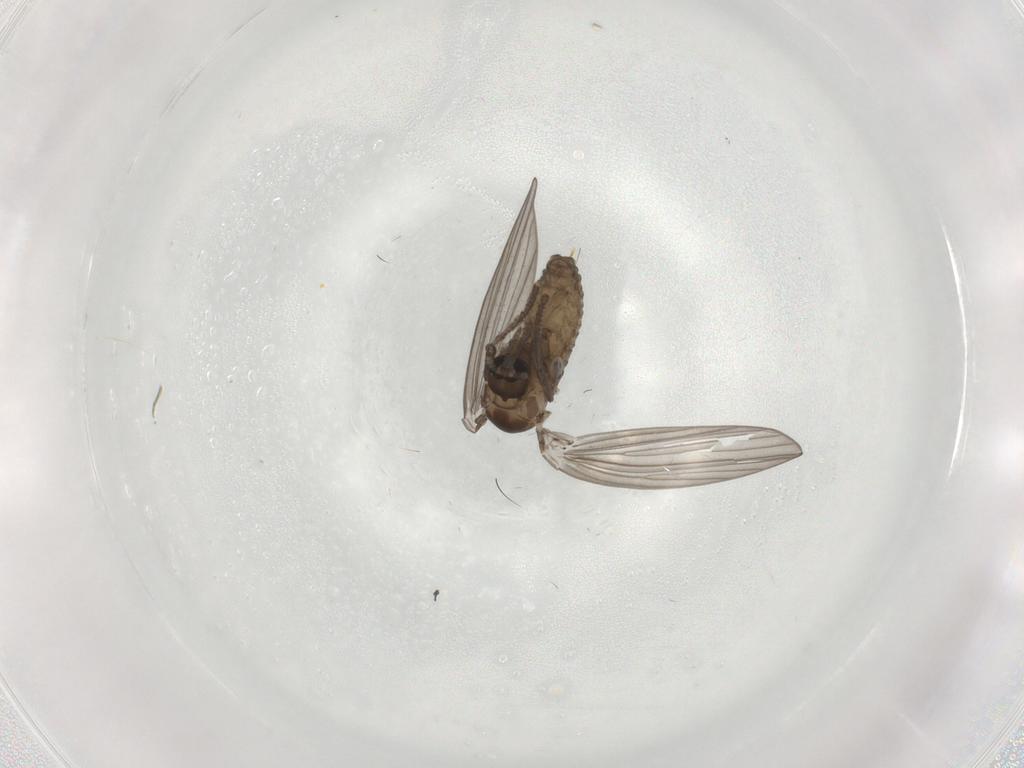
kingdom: Animalia
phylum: Arthropoda
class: Insecta
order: Diptera
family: Psychodidae
